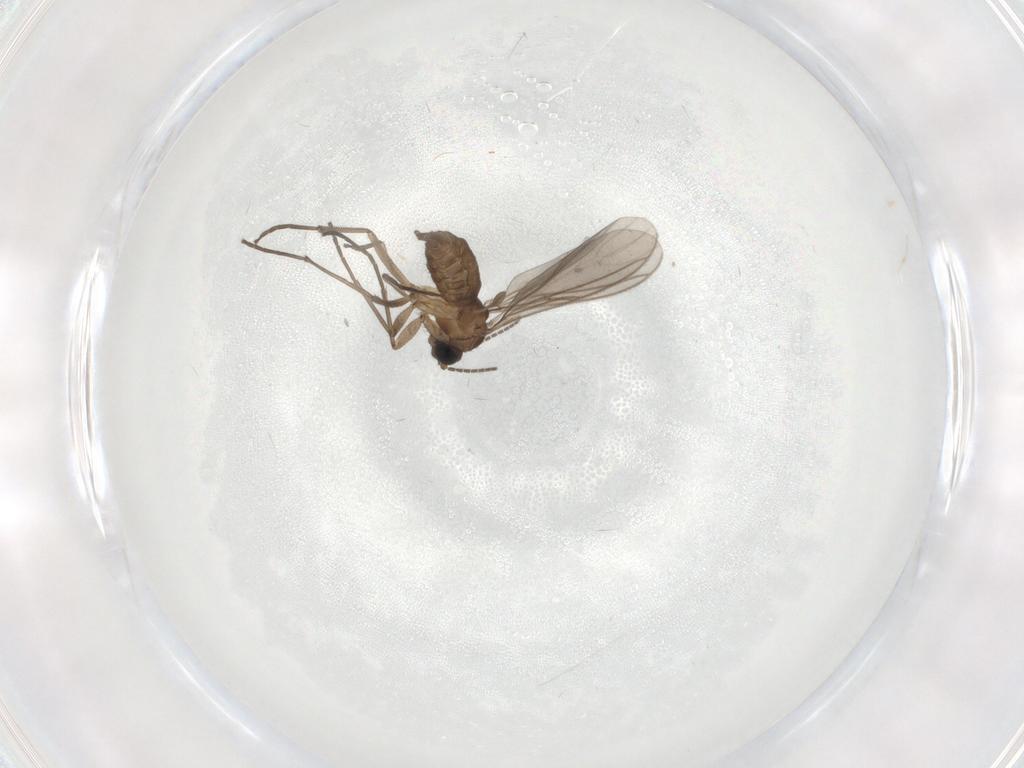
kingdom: Animalia
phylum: Arthropoda
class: Insecta
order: Diptera
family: Sciaridae
